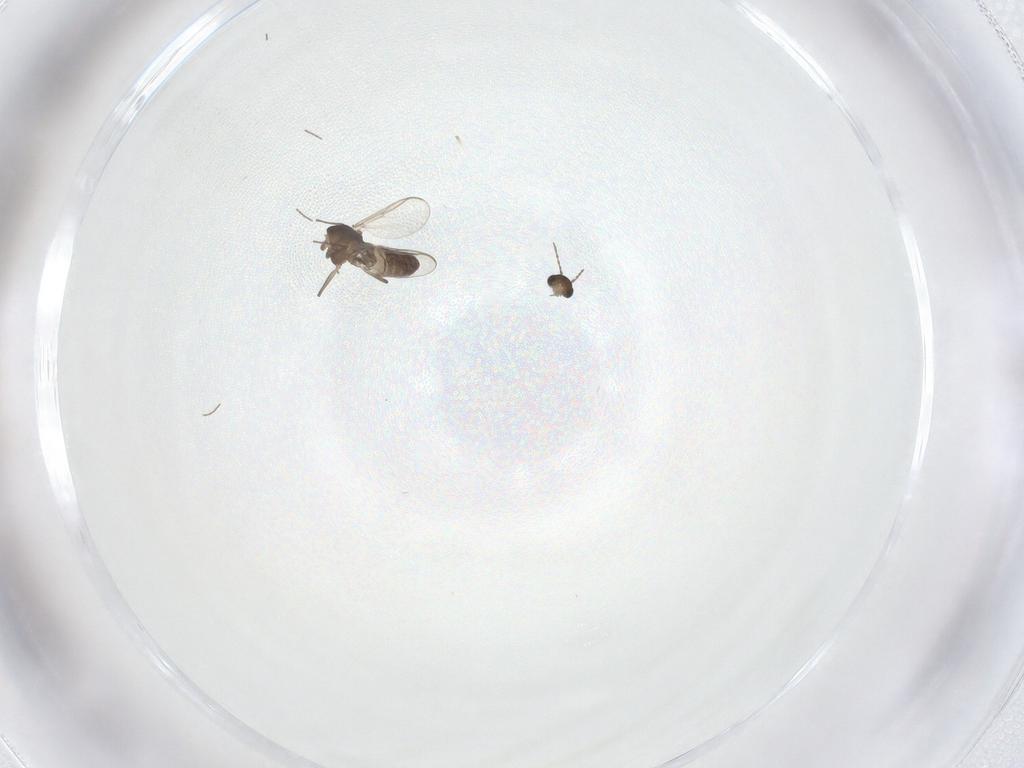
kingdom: Animalia
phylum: Arthropoda
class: Insecta
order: Diptera
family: Chironomidae
